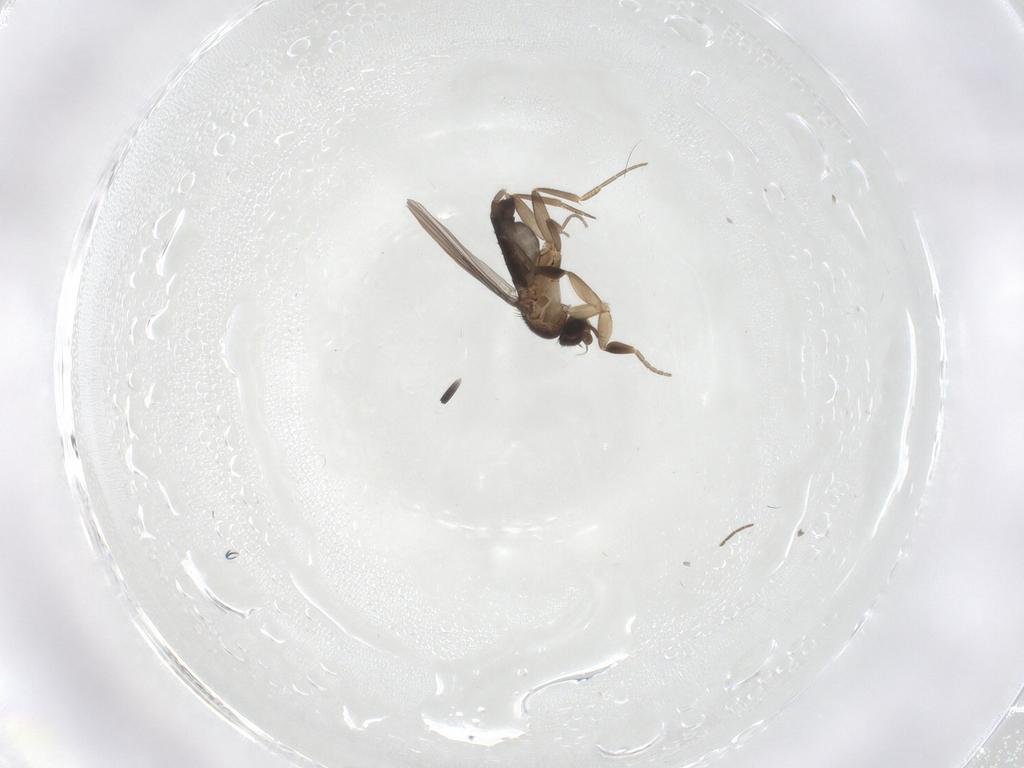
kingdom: Animalia
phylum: Arthropoda
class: Insecta
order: Diptera
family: Phoridae
